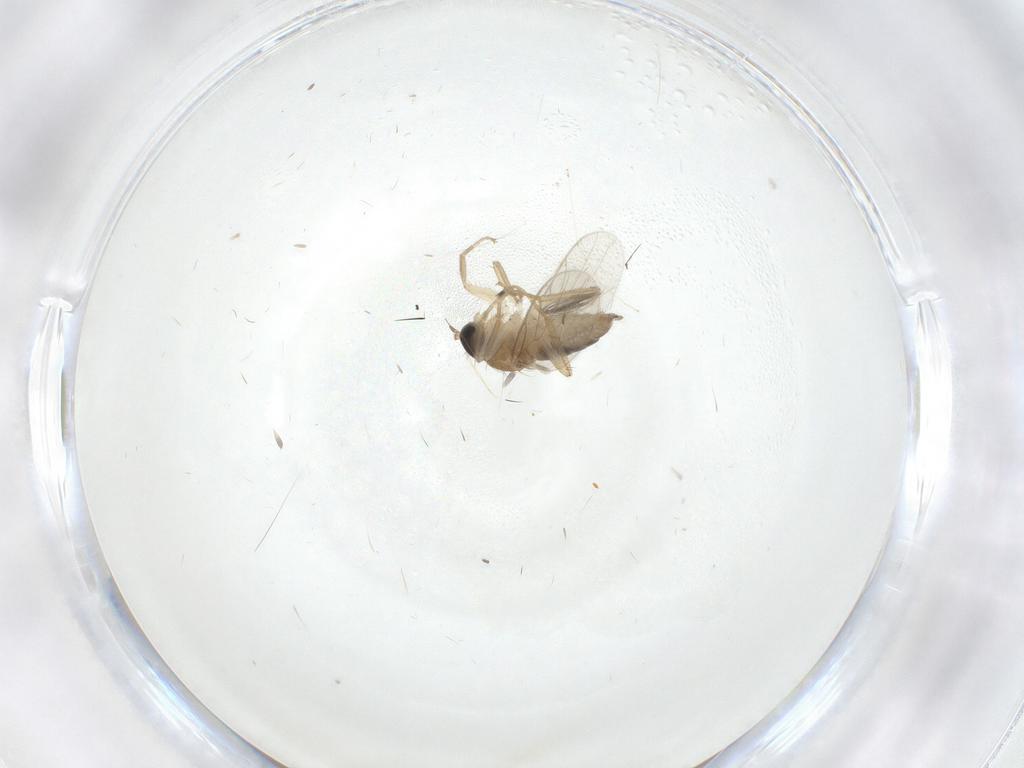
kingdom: Animalia
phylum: Arthropoda
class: Insecta
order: Diptera
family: Hybotidae
